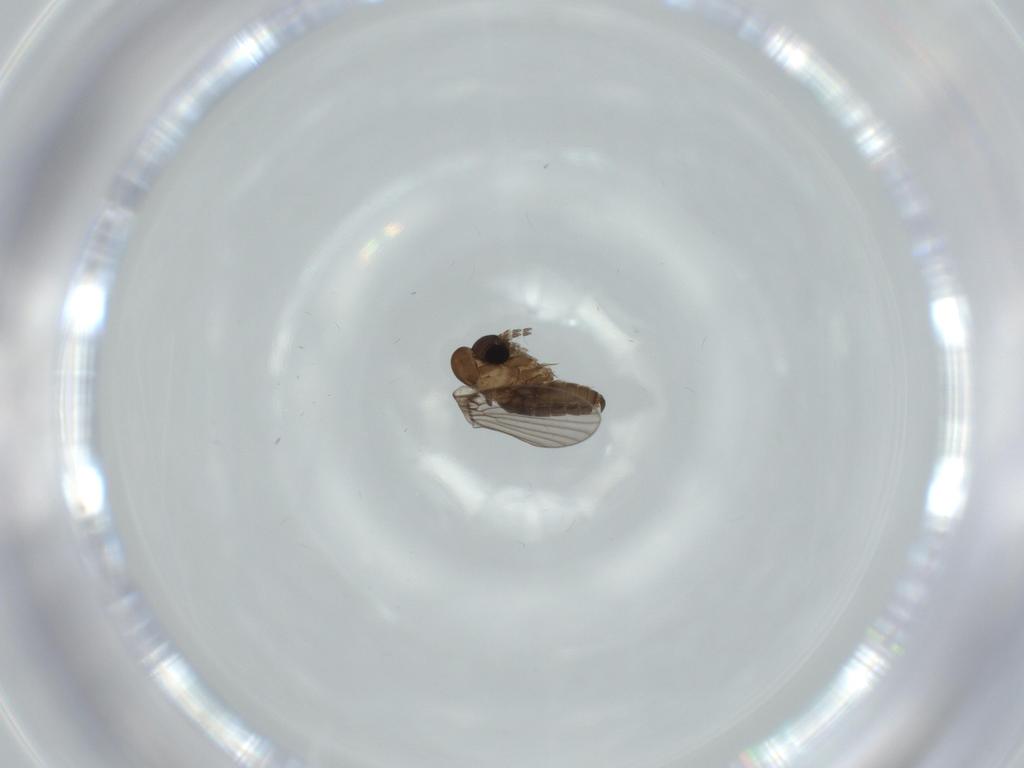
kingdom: Animalia
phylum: Arthropoda
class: Insecta
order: Diptera
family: Psychodidae
